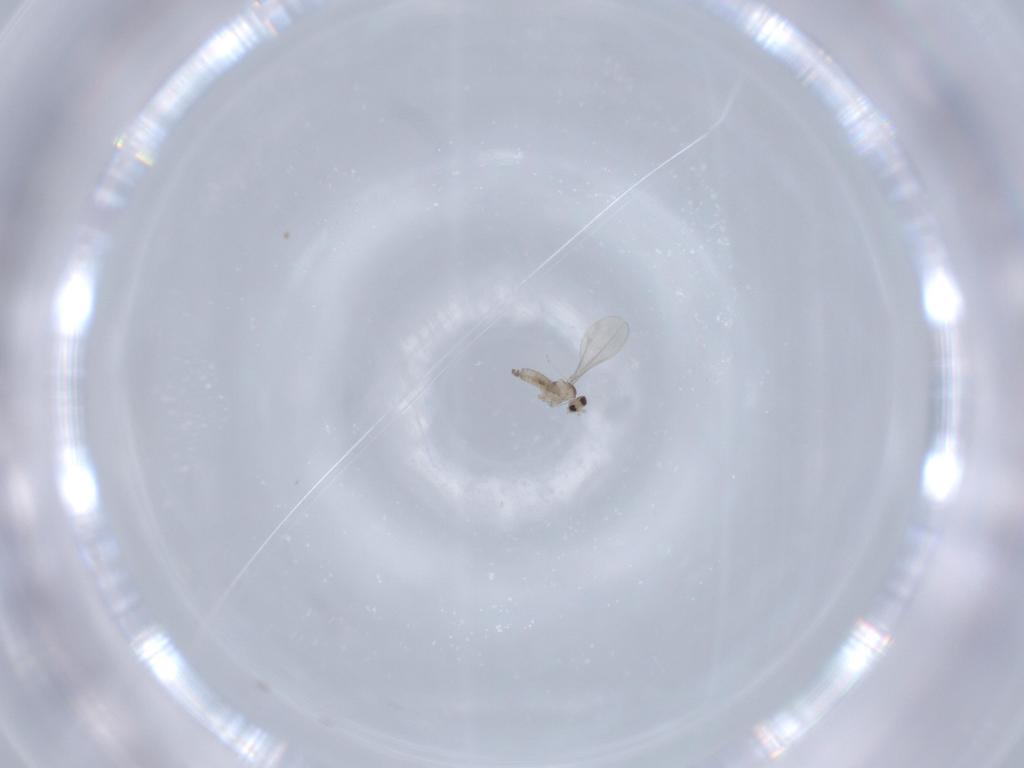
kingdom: Animalia
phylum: Arthropoda
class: Insecta
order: Diptera
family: Cecidomyiidae
